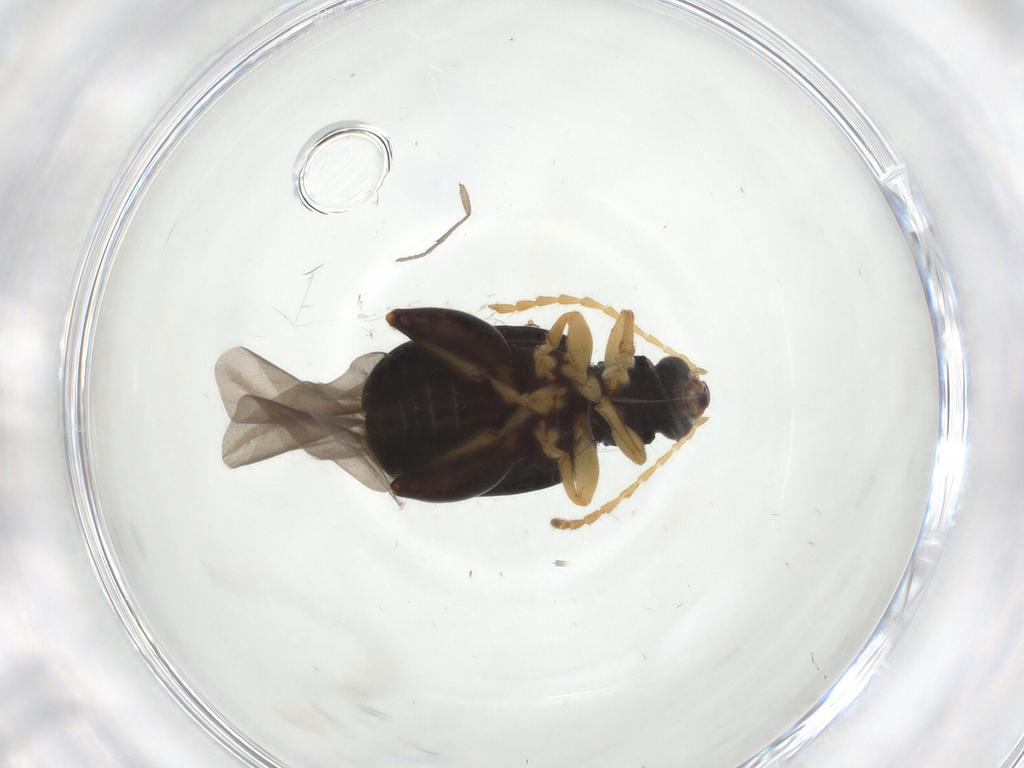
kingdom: Animalia
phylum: Arthropoda
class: Insecta
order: Coleoptera
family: Chrysomelidae
